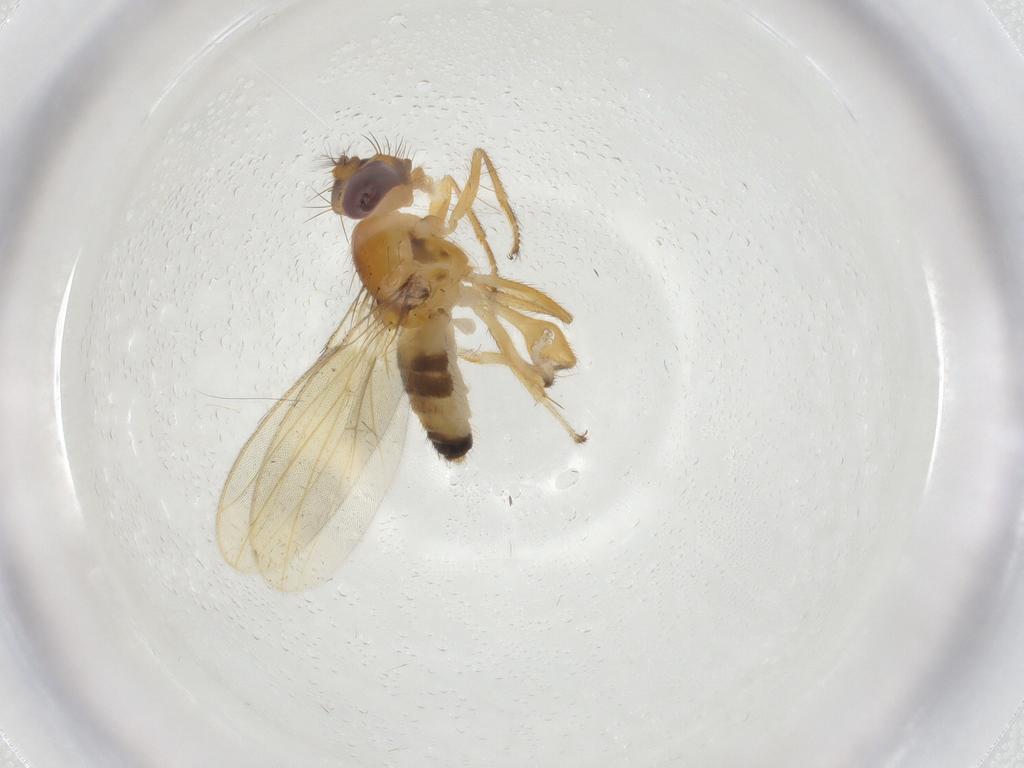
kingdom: Animalia
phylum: Arthropoda
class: Insecta
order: Diptera
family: Periscelididae
